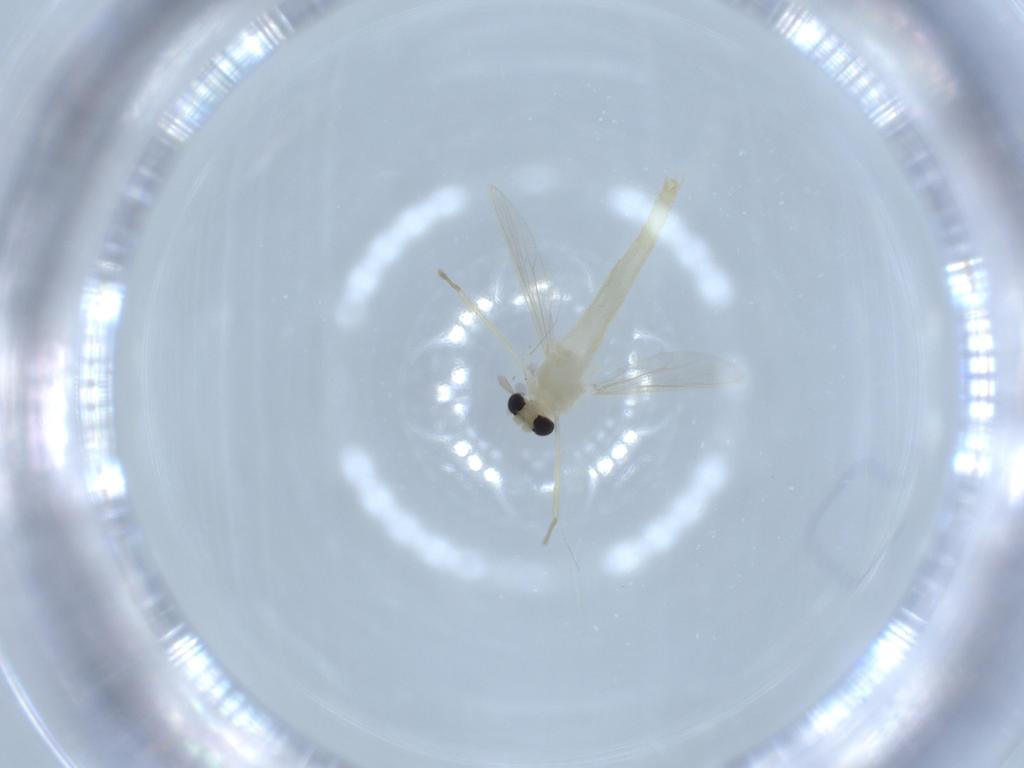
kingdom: Animalia
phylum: Arthropoda
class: Insecta
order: Diptera
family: Chironomidae
